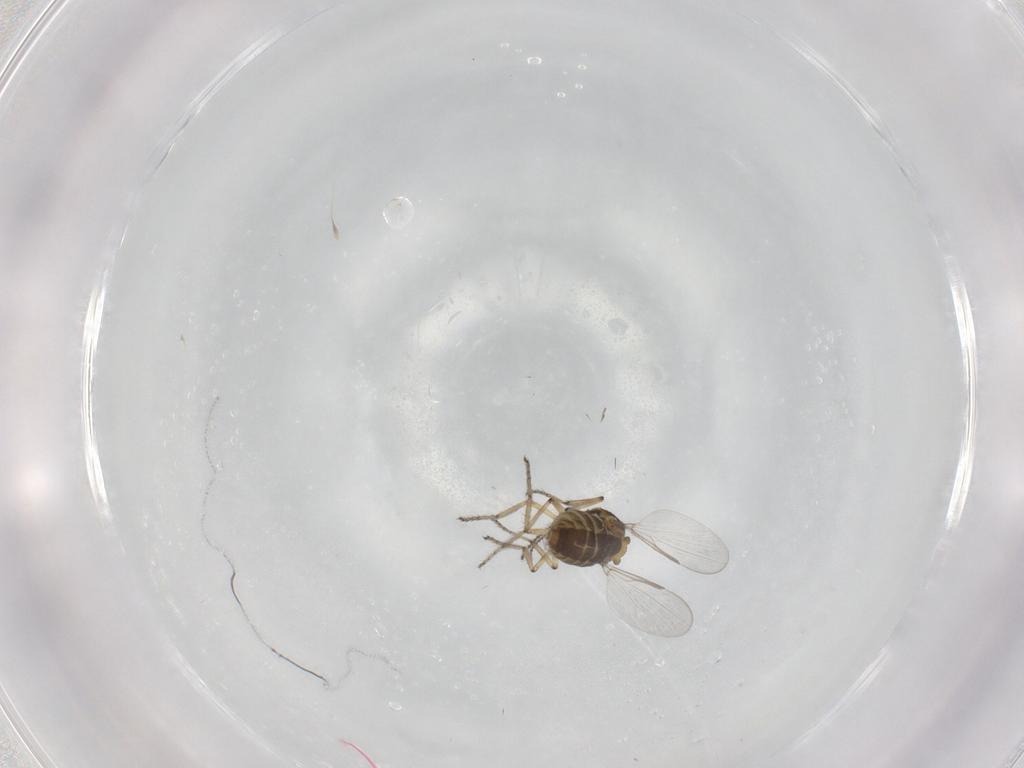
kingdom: Animalia
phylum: Arthropoda
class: Insecta
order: Diptera
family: Ceratopogonidae
